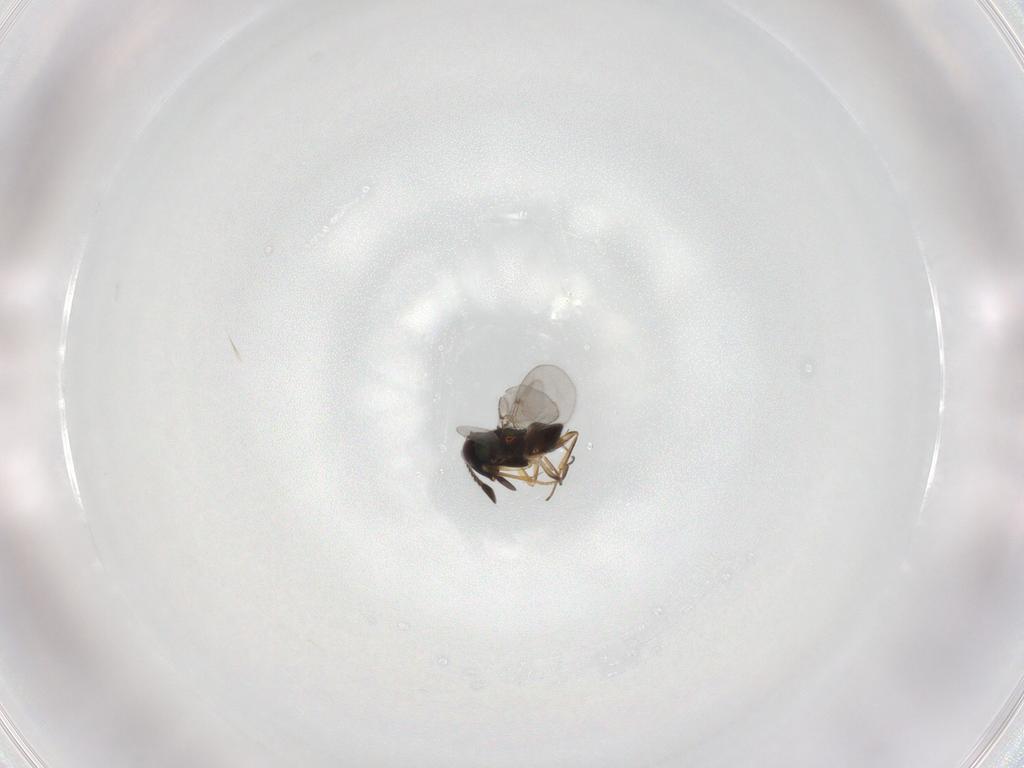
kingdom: Animalia
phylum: Arthropoda
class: Insecta
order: Hymenoptera
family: Eulophidae
